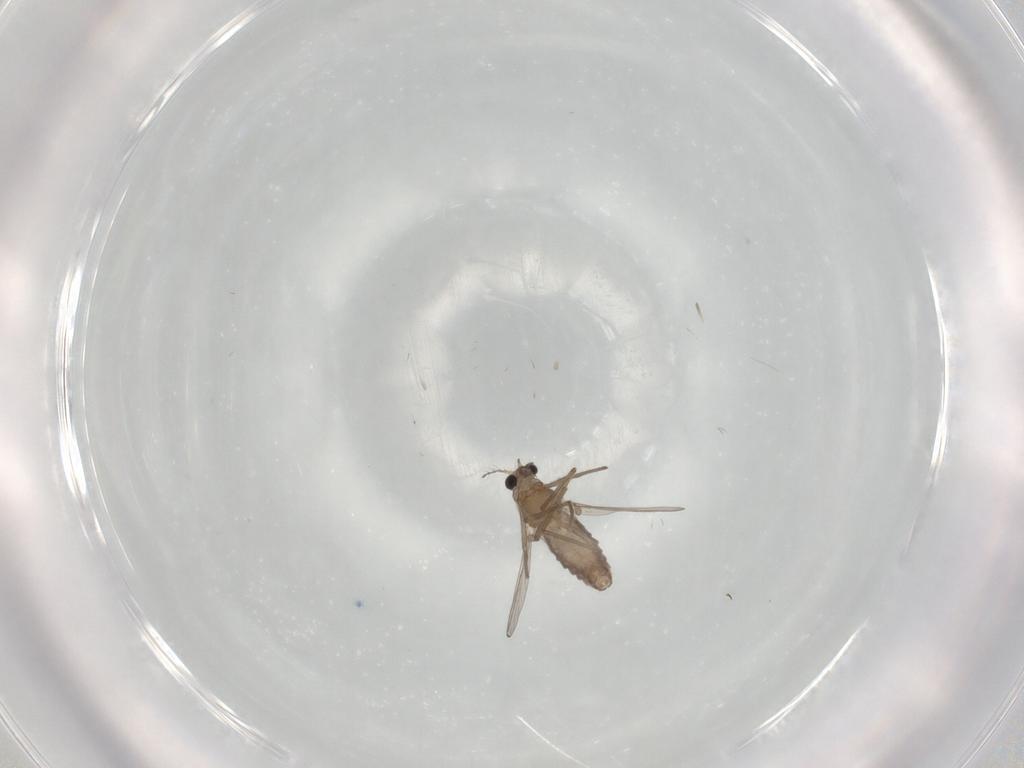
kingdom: Animalia
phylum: Arthropoda
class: Insecta
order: Diptera
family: Chironomidae
